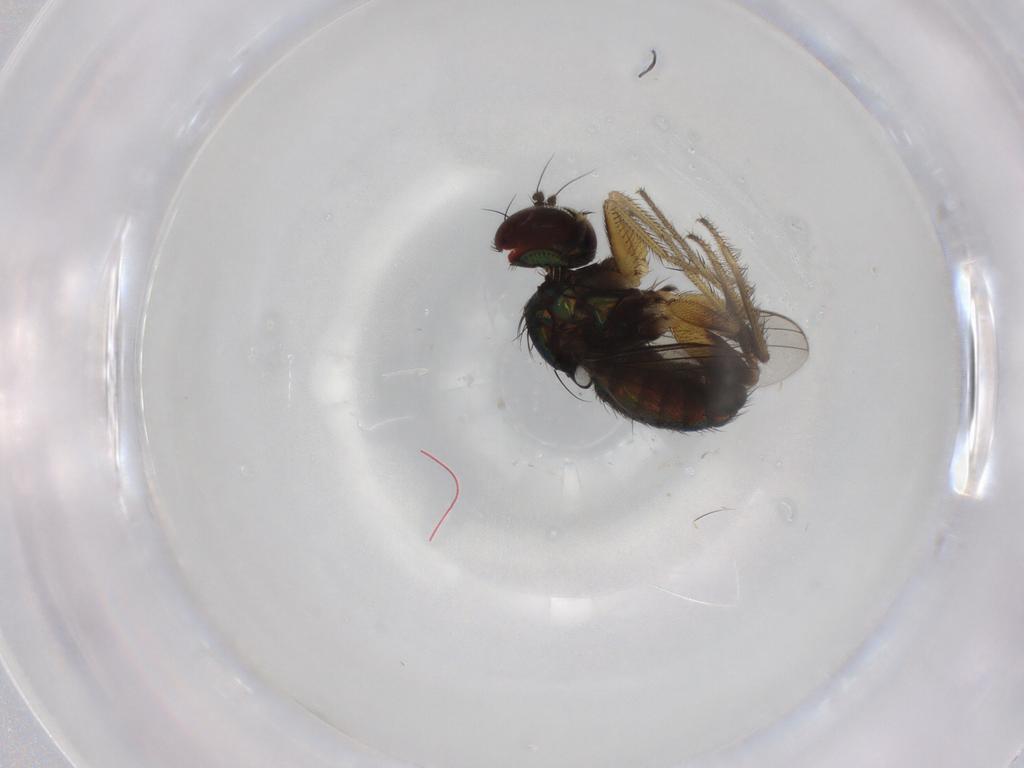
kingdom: Animalia
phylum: Arthropoda
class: Insecta
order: Diptera
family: Dolichopodidae
